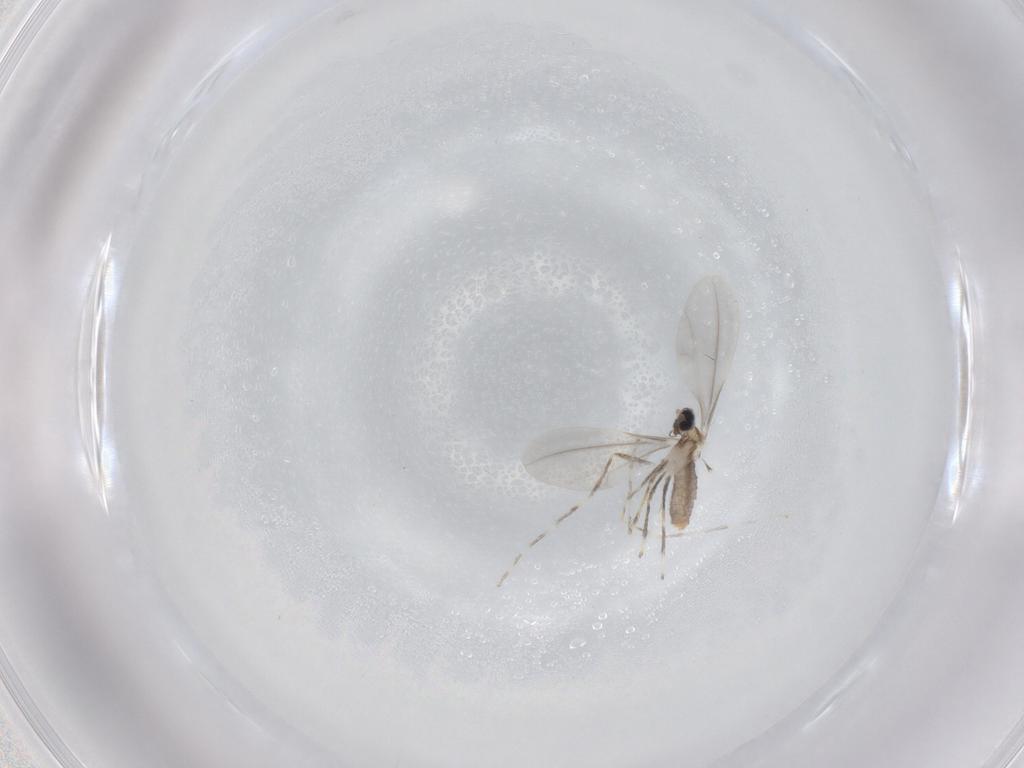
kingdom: Animalia
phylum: Arthropoda
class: Insecta
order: Diptera
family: Cecidomyiidae
